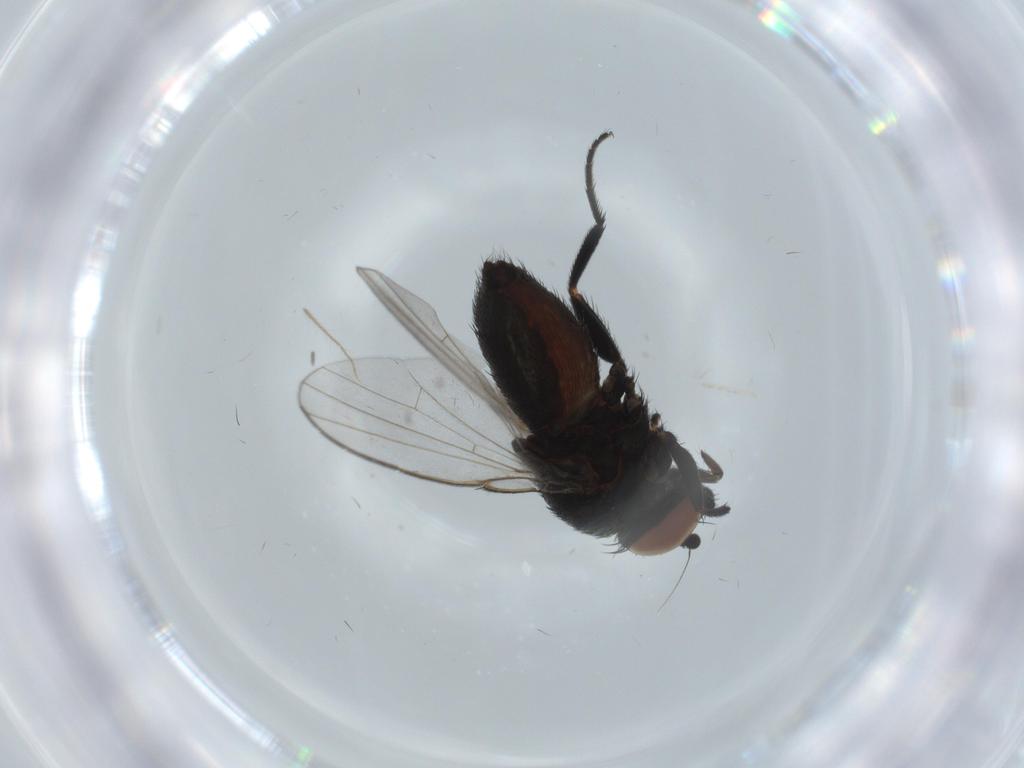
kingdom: Animalia
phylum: Arthropoda
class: Insecta
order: Diptera
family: Milichiidae
